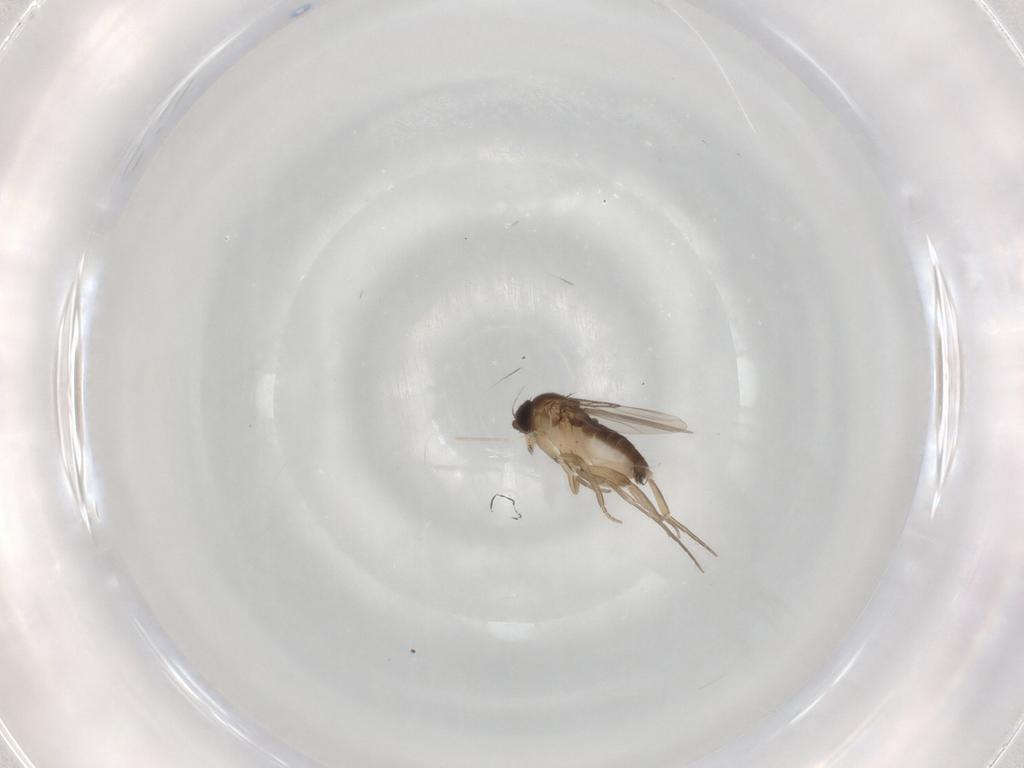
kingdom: Animalia
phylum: Arthropoda
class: Insecta
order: Diptera
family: Phoridae
